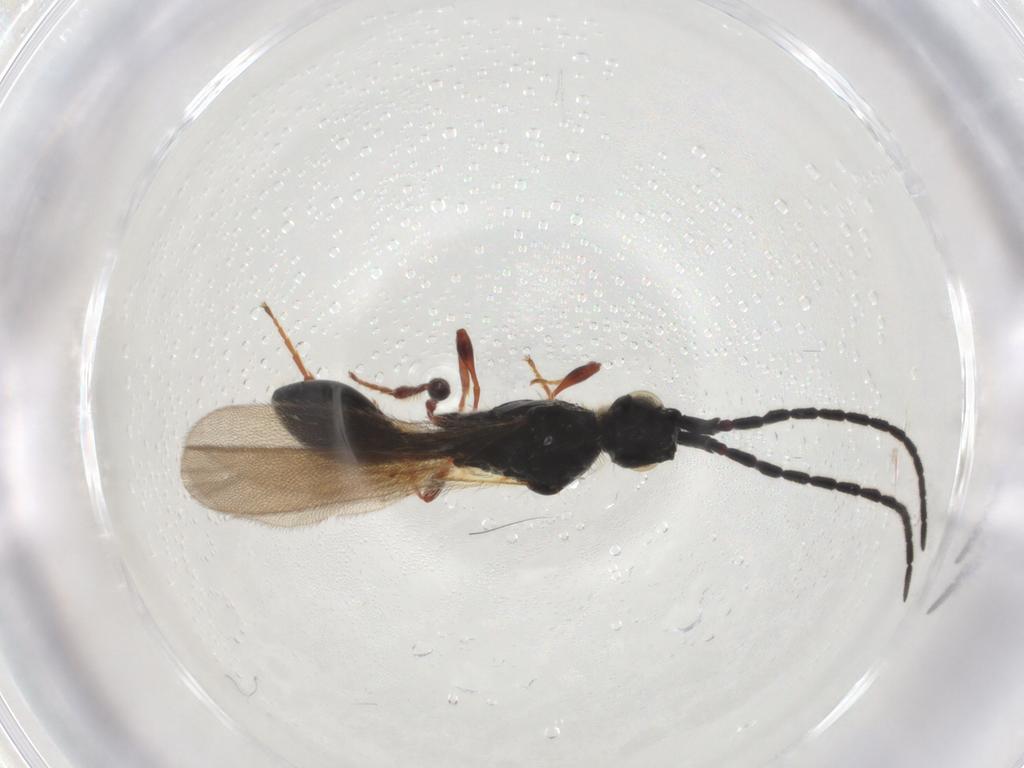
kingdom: Animalia
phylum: Arthropoda
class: Insecta
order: Hymenoptera
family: Diapriidae
